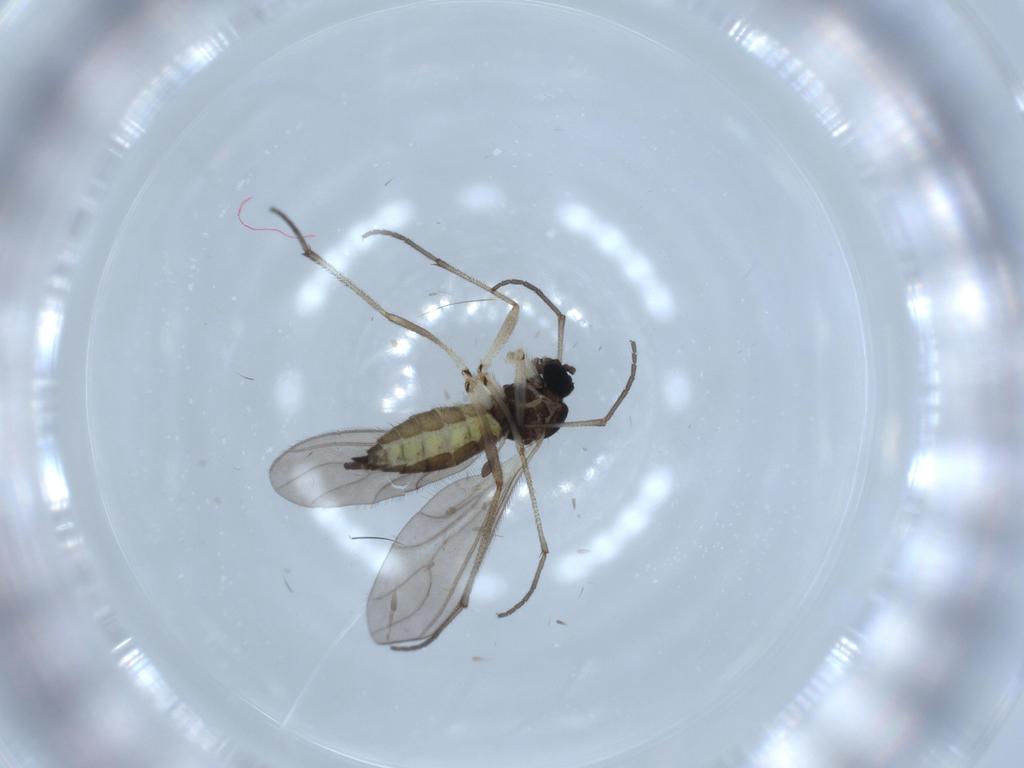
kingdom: Animalia
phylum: Arthropoda
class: Insecta
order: Diptera
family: Sciaridae
